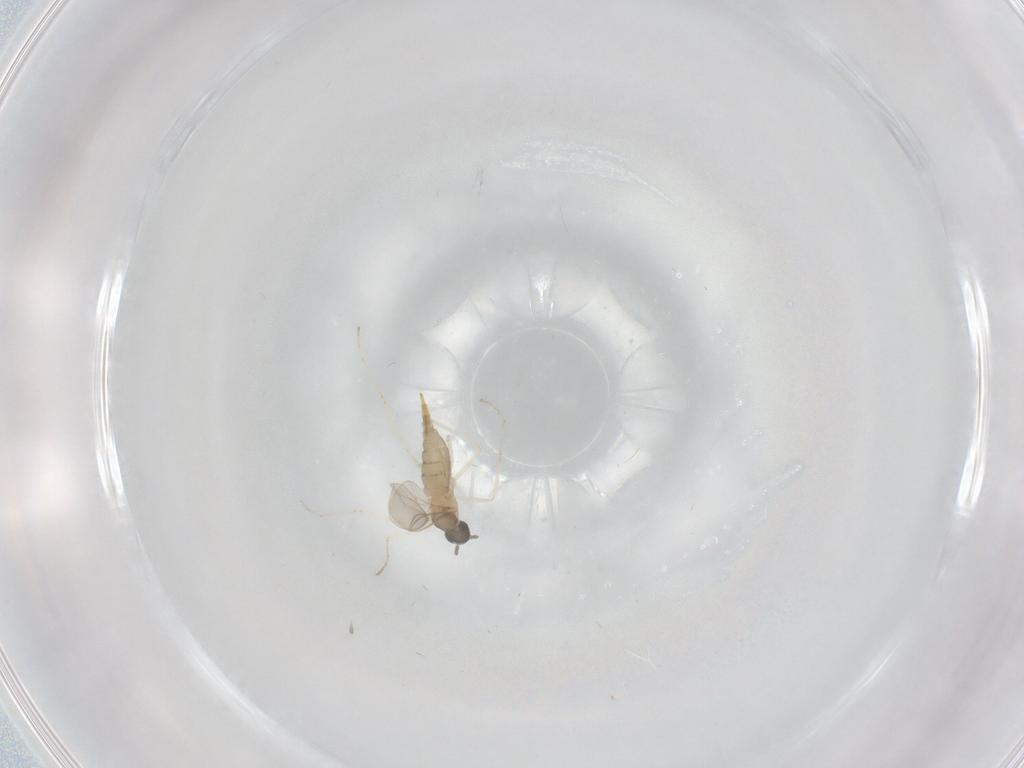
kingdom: Animalia
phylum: Arthropoda
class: Insecta
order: Diptera
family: Cecidomyiidae
